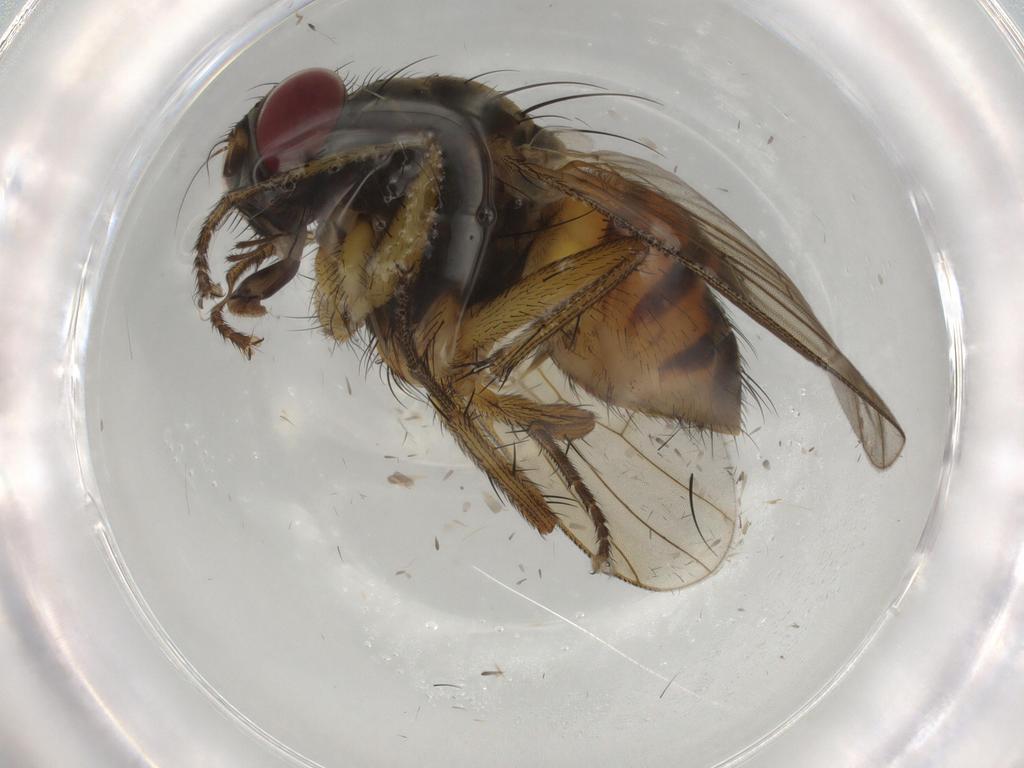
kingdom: Animalia
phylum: Arthropoda
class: Insecta
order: Diptera
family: Muscidae
